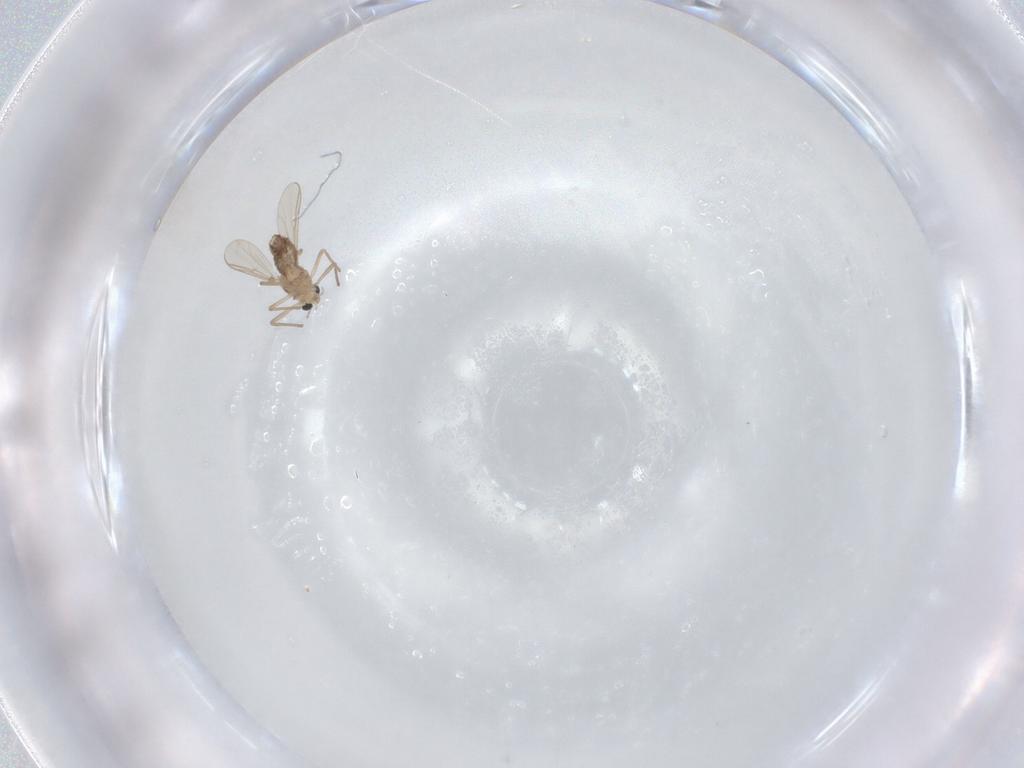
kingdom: Animalia
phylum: Arthropoda
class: Insecta
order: Diptera
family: Chironomidae
